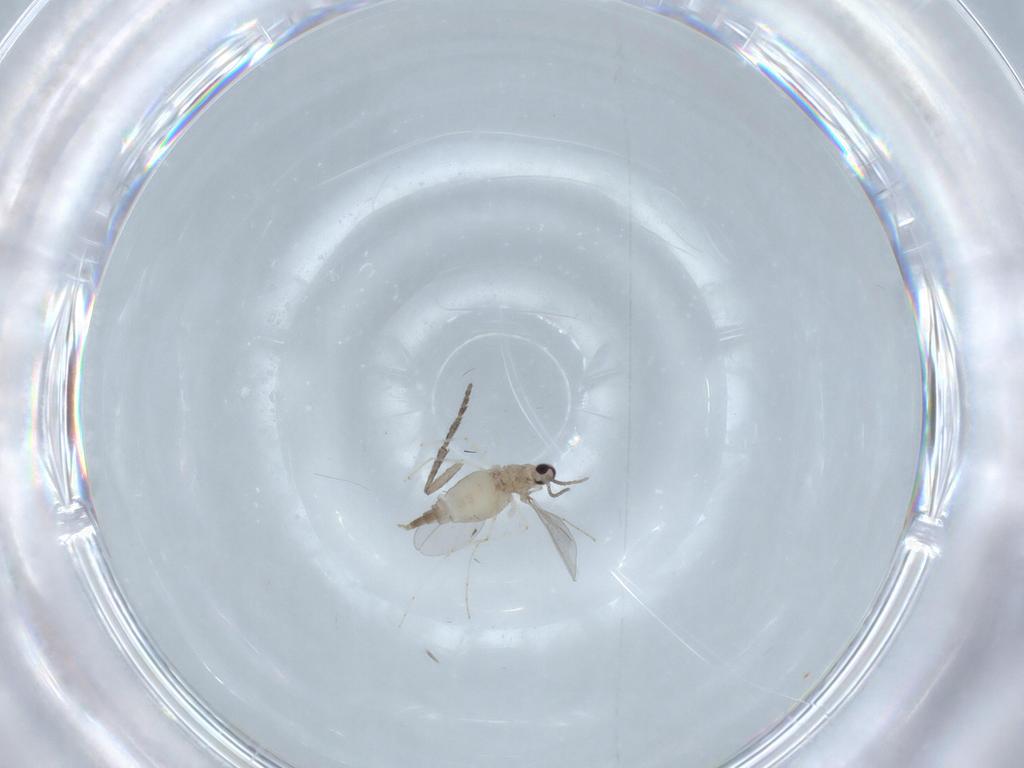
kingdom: Animalia
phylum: Arthropoda
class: Insecta
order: Diptera
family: Cecidomyiidae
